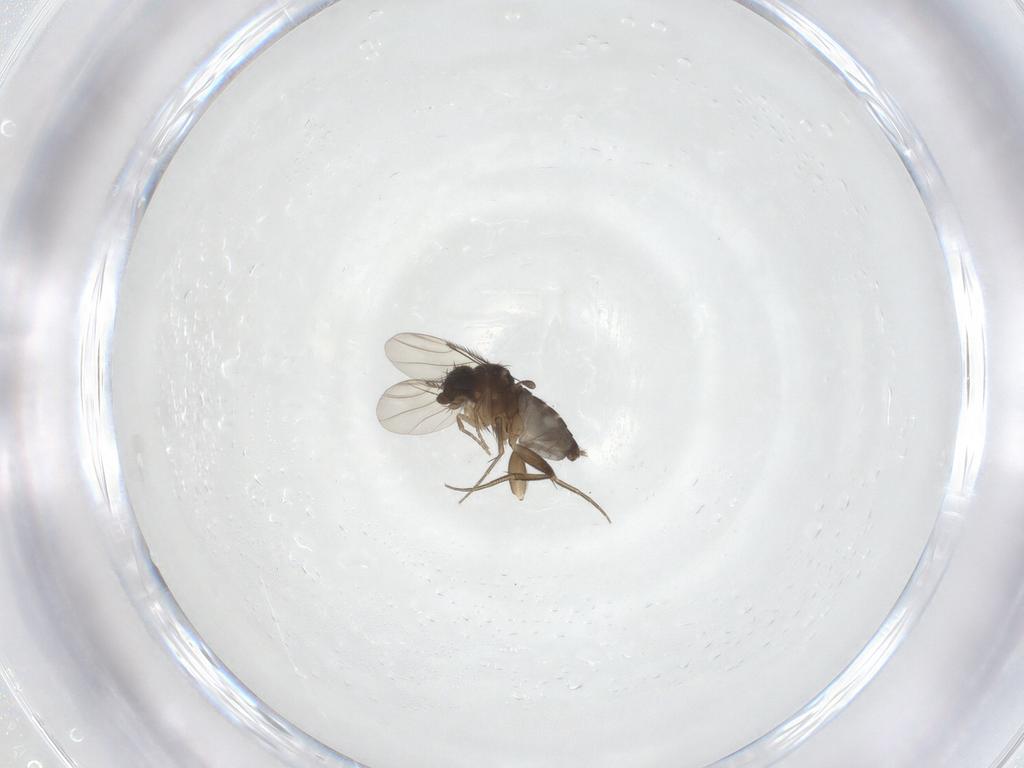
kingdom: Animalia
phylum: Arthropoda
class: Insecta
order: Diptera
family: Phoridae
